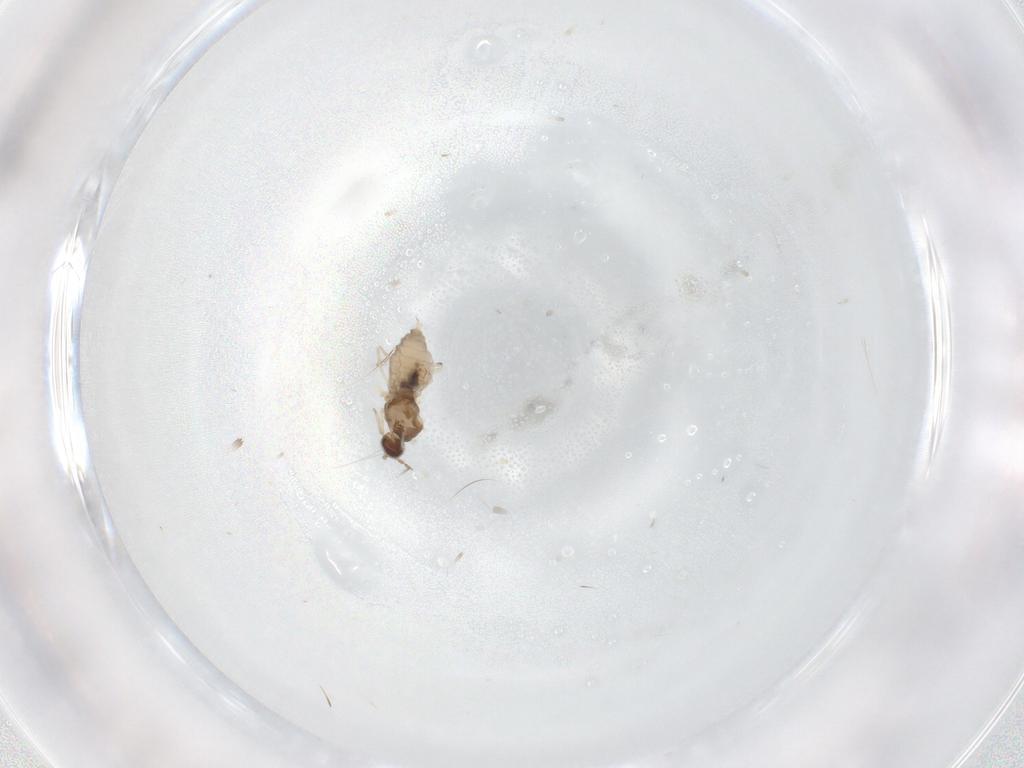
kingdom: Animalia
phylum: Arthropoda
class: Insecta
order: Diptera
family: Cecidomyiidae
